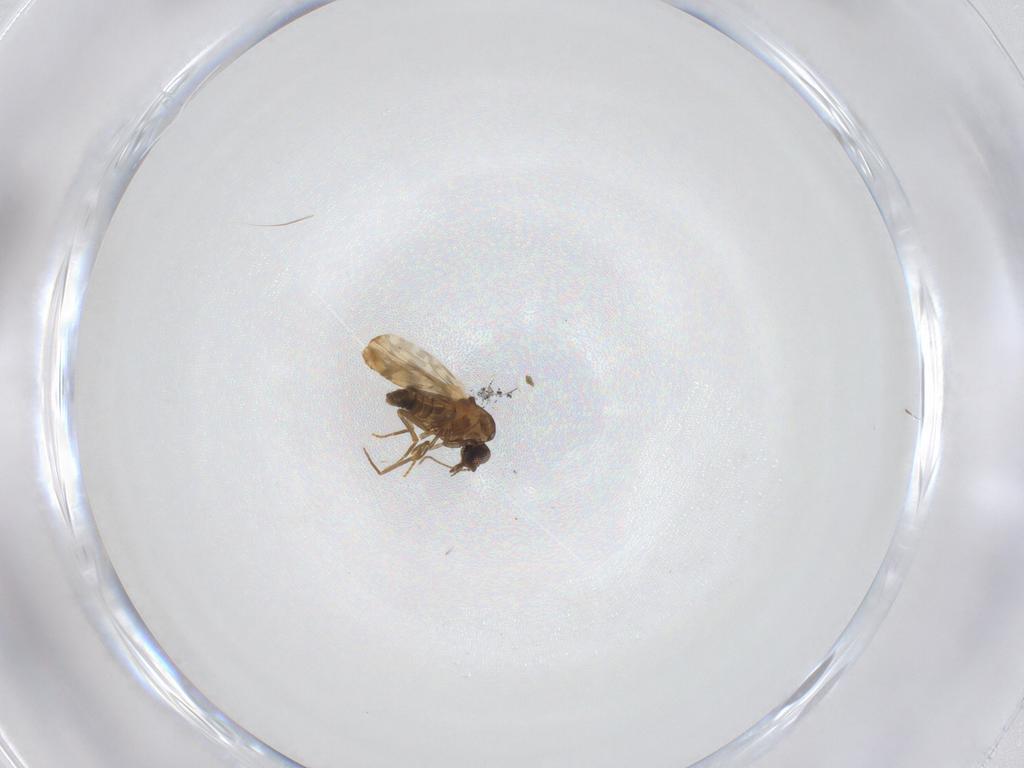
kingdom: Animalia
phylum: Arthropoda
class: Insecta
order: Diptera
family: Ceratopogonidae
